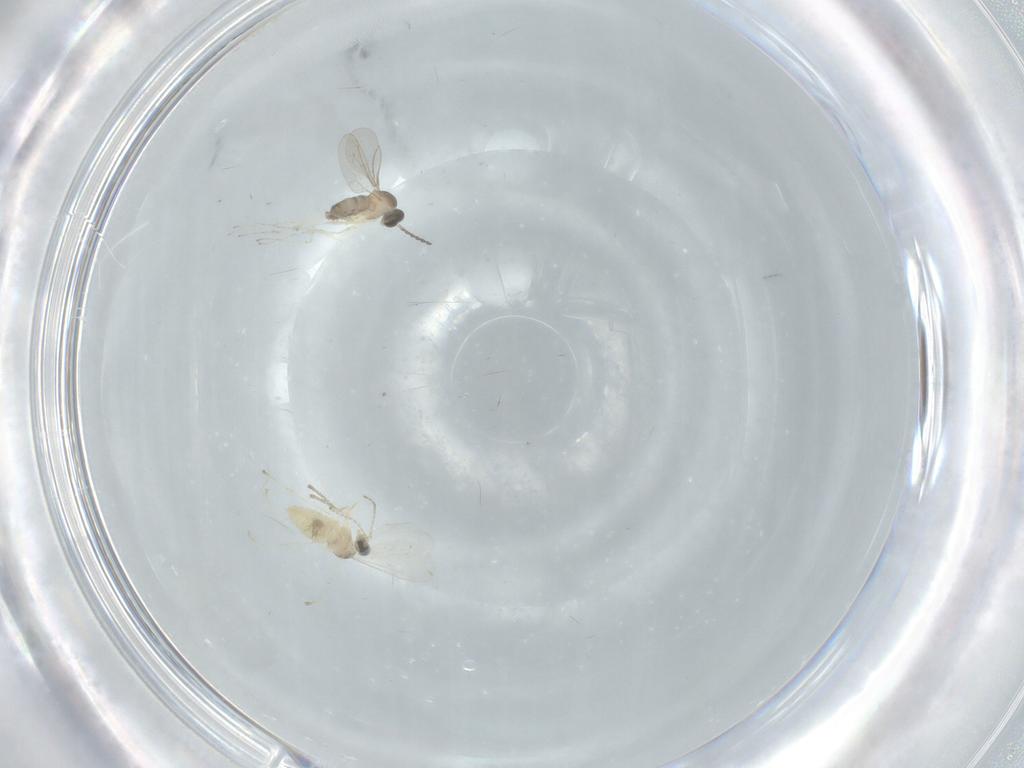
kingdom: Animalia
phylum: Arthropoda
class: Insecta
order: Diptera
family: Cecidomyiidae
